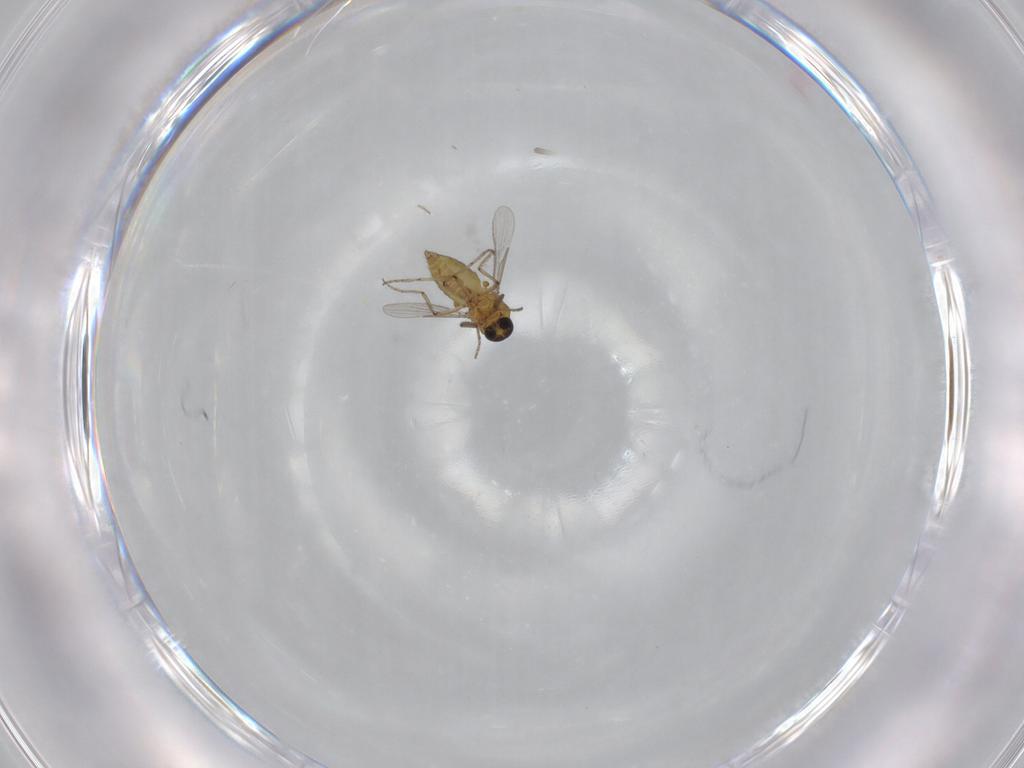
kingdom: Animalia
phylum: Arthropoda
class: Insecta
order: Diptera
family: Ceratopogonidae
